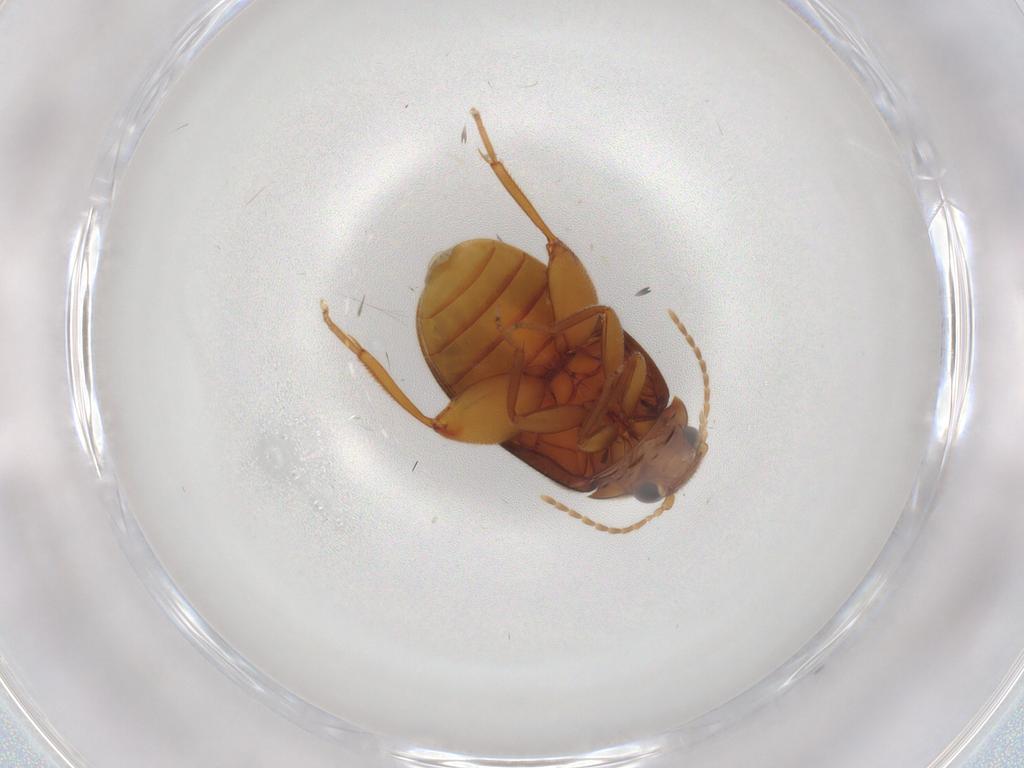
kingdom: Animalia
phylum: Arthropoda
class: Insecta
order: Coleoptera
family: Scirtidae
